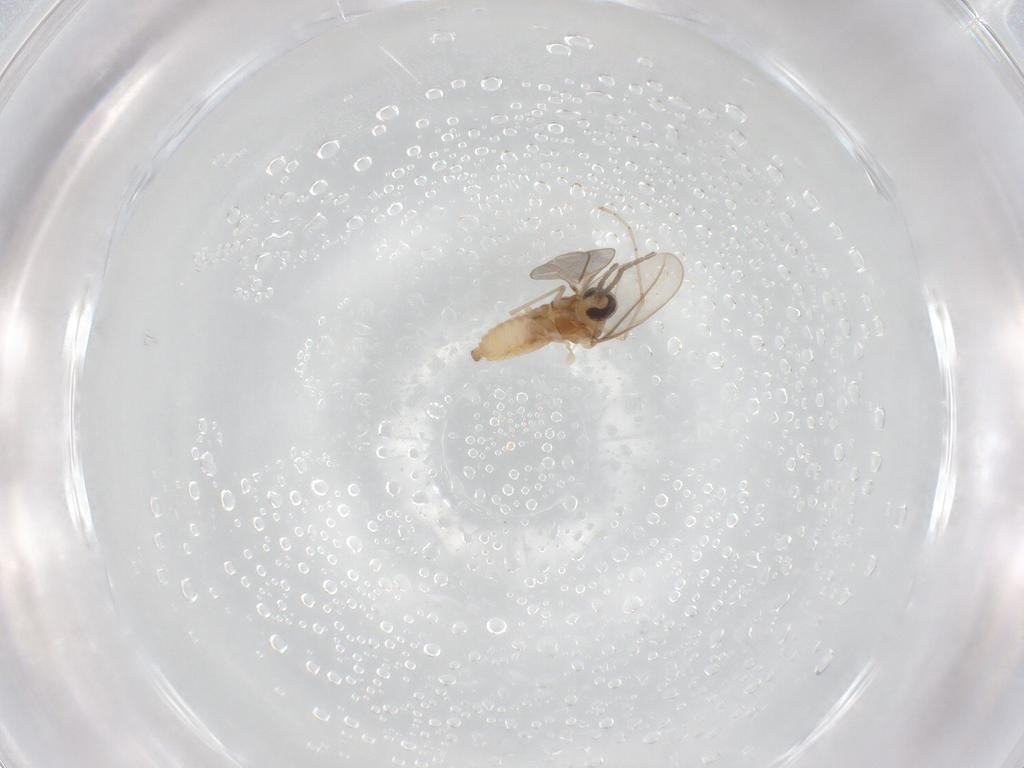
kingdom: Animalia
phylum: Arthropoda
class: Insecta
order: Diptera
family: Cecidomyiidae
